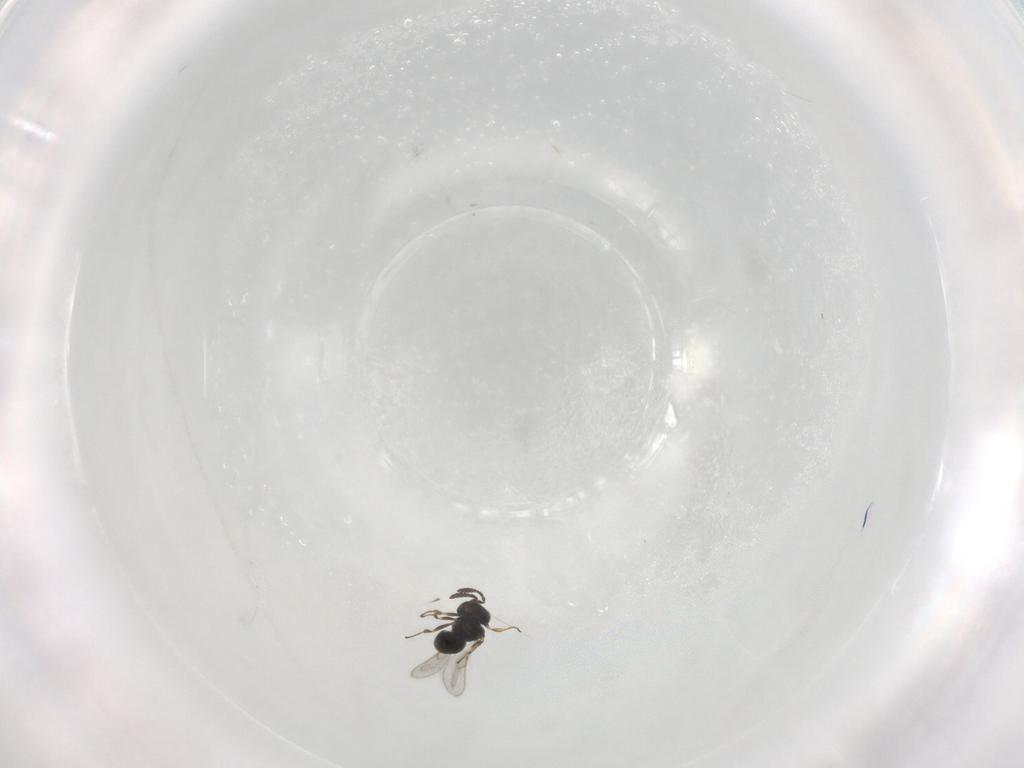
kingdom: Animalia
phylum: Arthropoda
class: Insecta
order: Hymenoptera
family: Scelionidae
